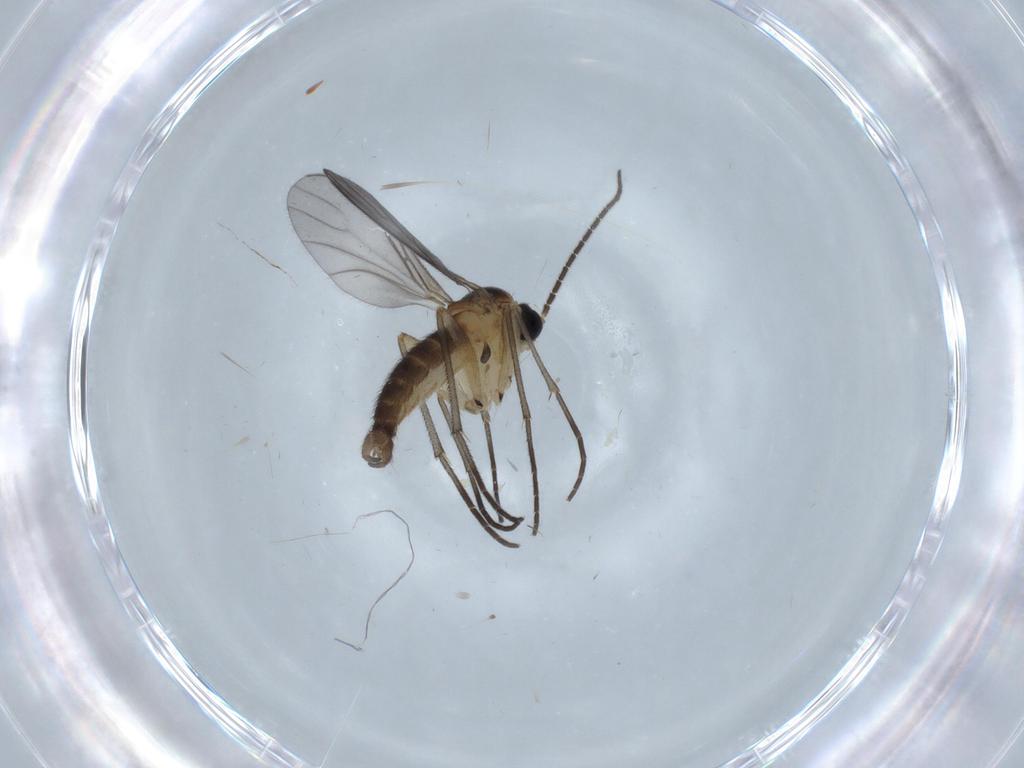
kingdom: Animalia
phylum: Arthropoda
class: Insecta
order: Diptera
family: Sciaridae
